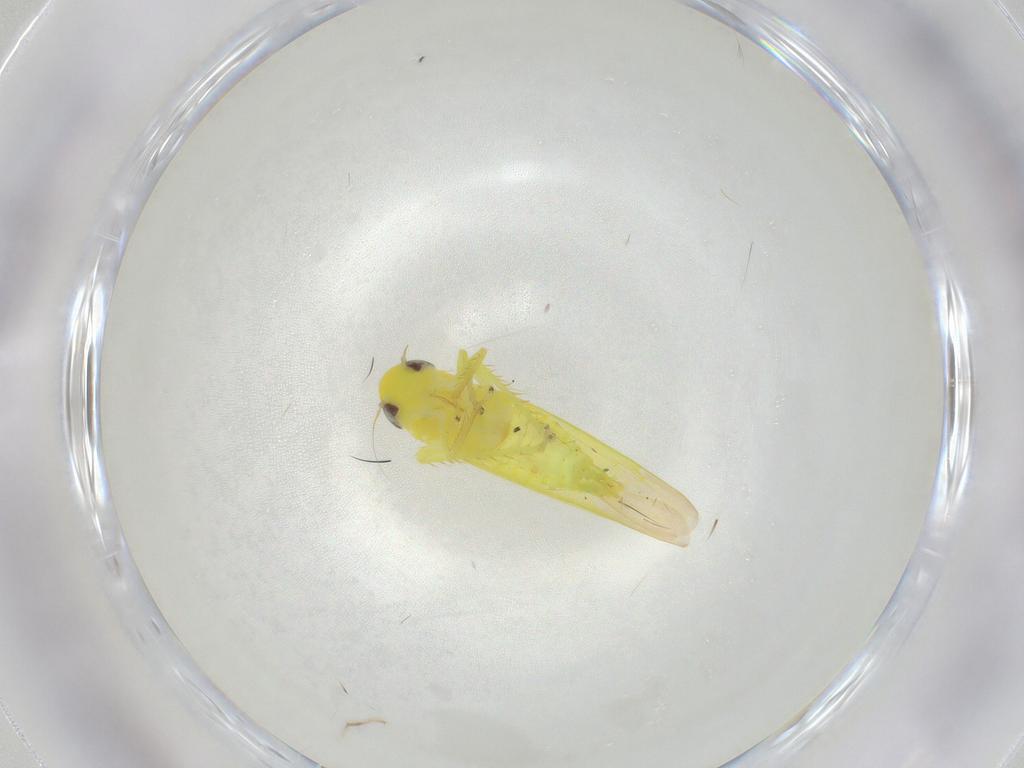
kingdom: Animalia
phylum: Arthropoda
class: Insecta
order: Hemiptera
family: Cicadellidae
